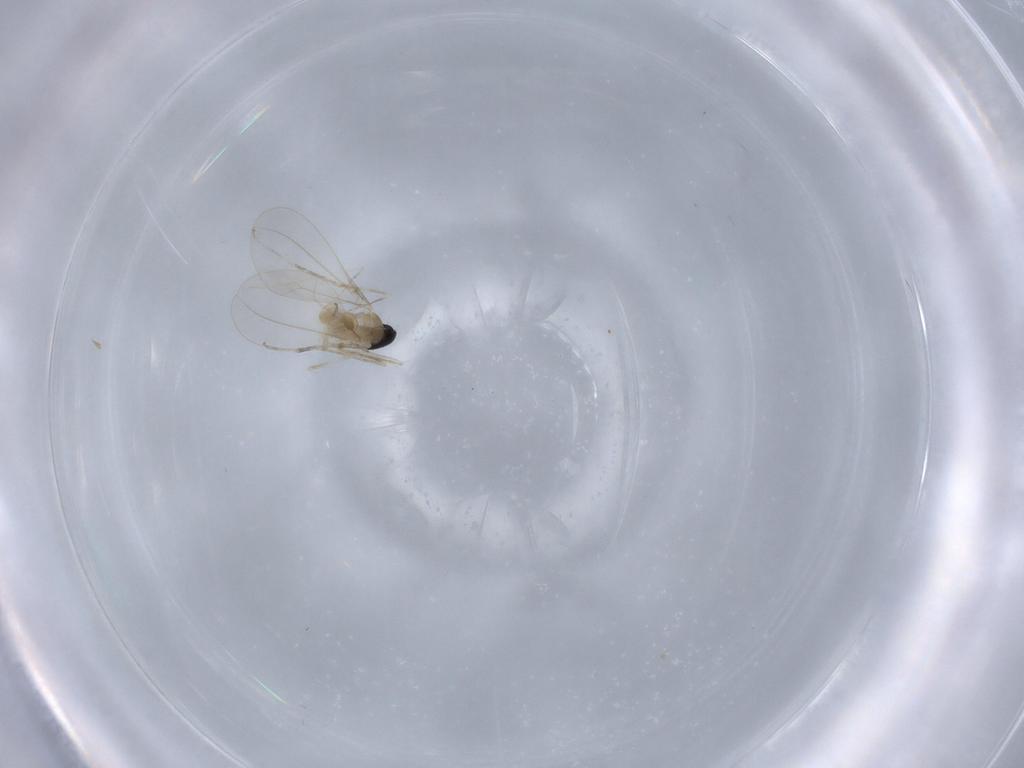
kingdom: Animalia
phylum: Arthropoda
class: Insecta
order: Diptera
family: Cecidomyiidae
